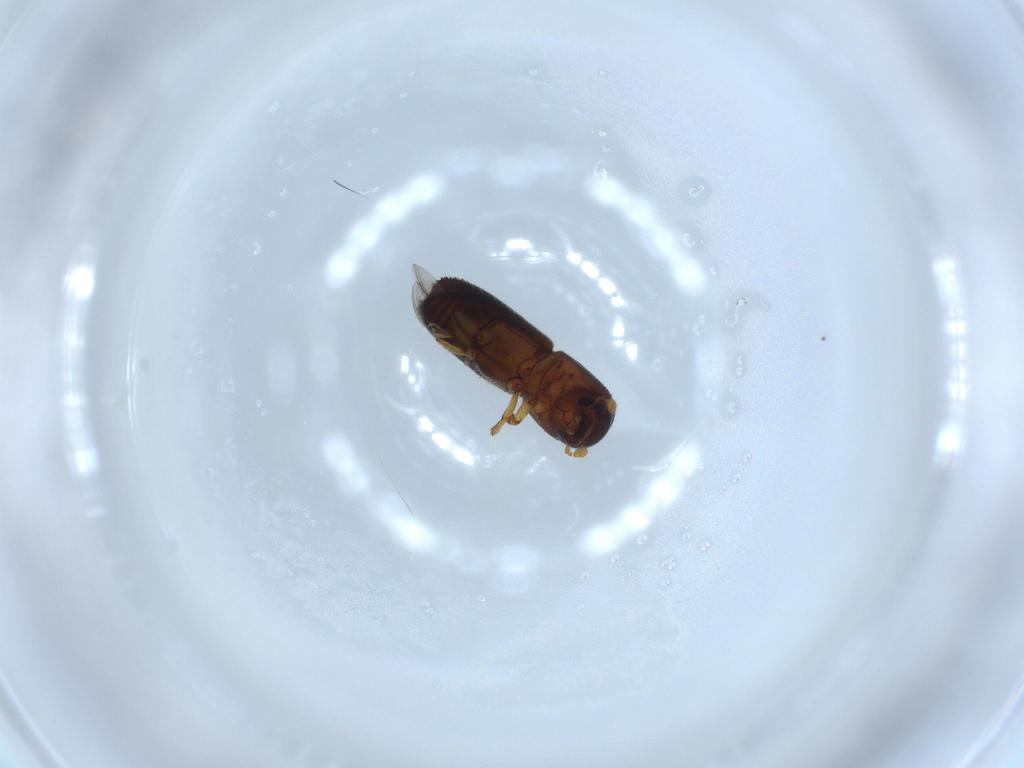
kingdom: Animalia
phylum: Arthropoda
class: Insecta
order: Coleoptera
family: Curculionidae
